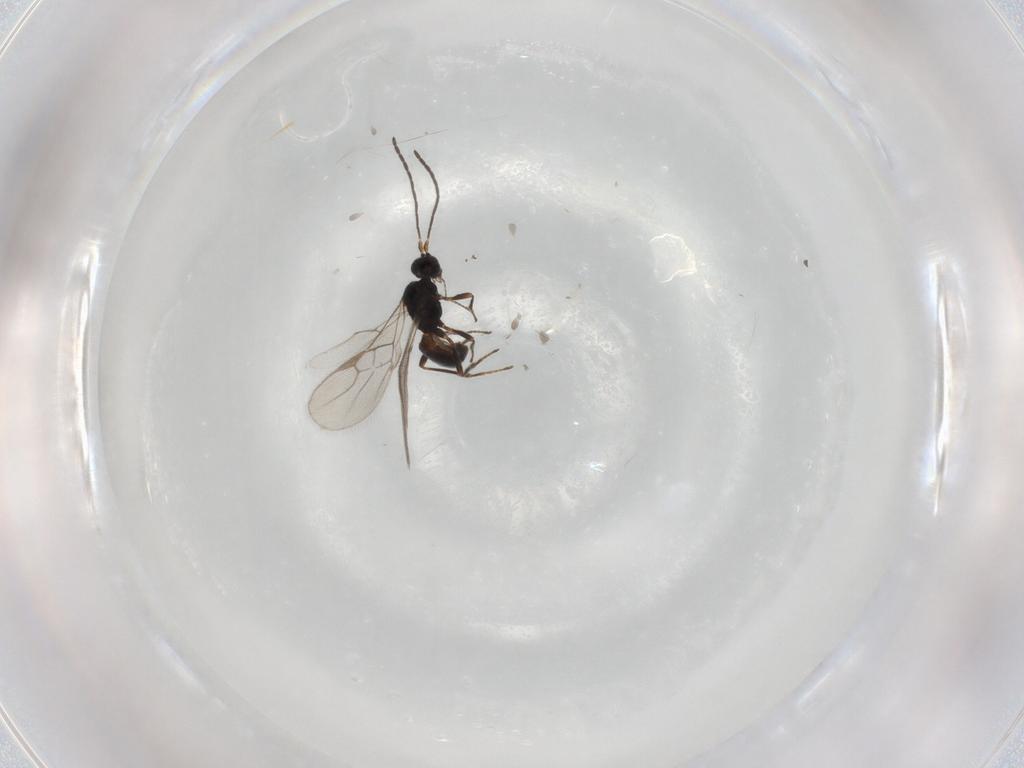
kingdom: Animalia
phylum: Arthropoda
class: Insecta
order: Hymenoptera
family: Braconidae
